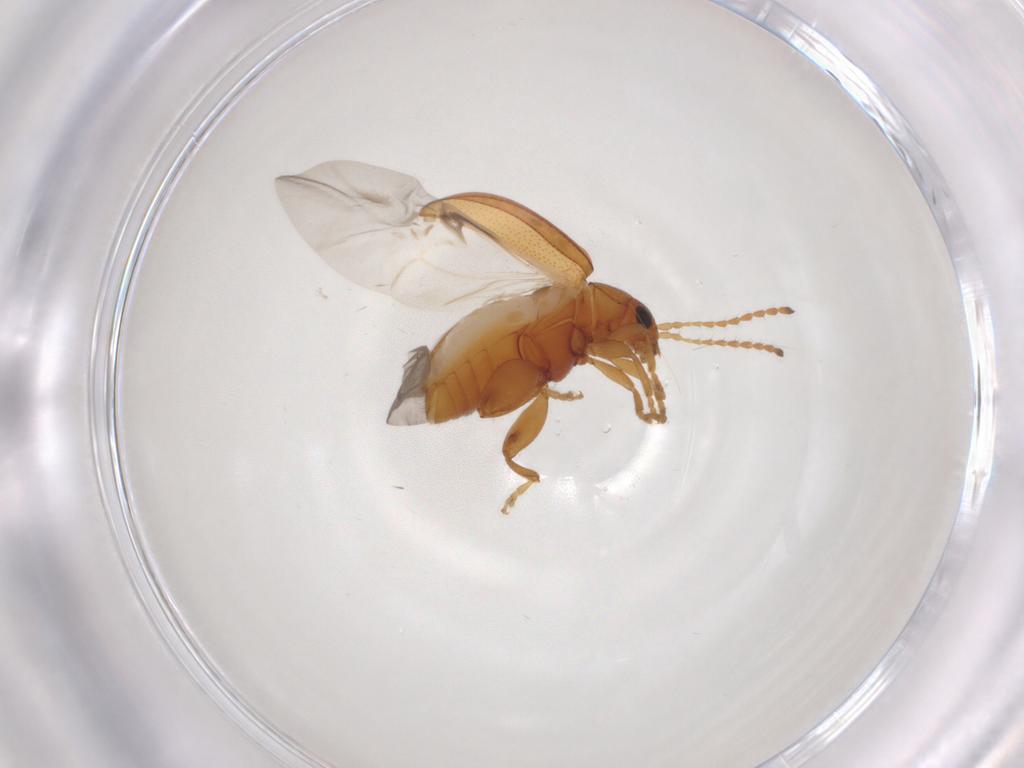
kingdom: Animalia
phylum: Arthropoda
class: Insecta
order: Coleoptera
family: Chrysomelidae
